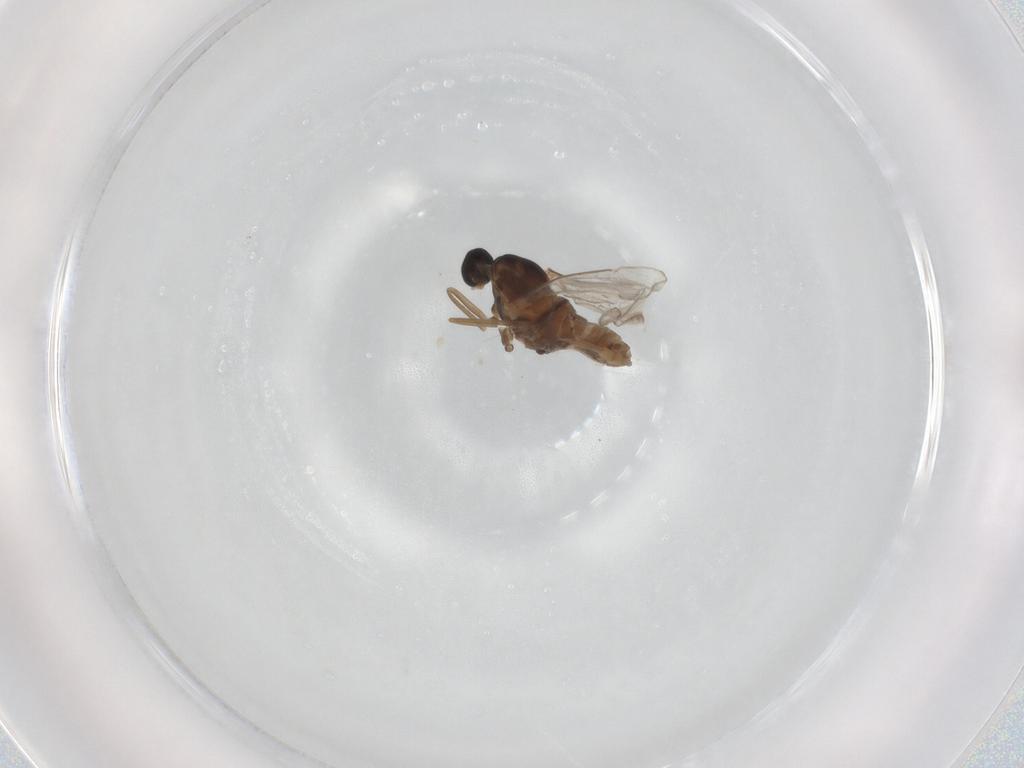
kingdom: Animalia
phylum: Arthropoda
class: Insecta
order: Diptera
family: Cecidomyiidae
